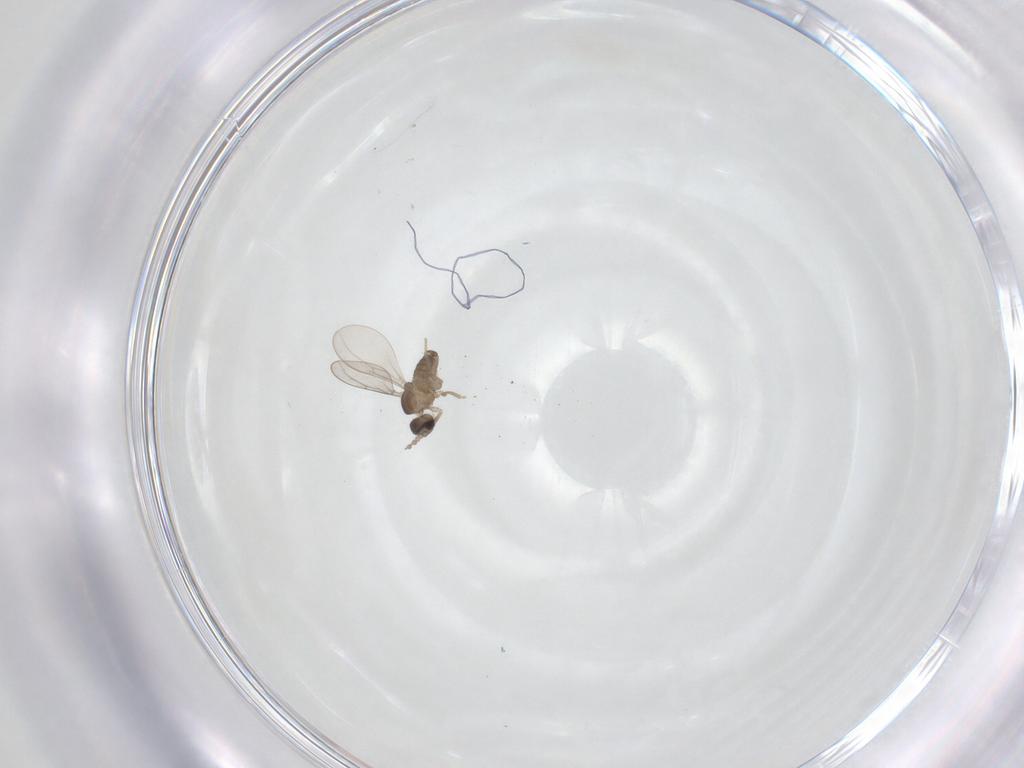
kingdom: Animalia
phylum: Arthropoda
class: Insecta
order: Diptera
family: Cecidomyiidae
